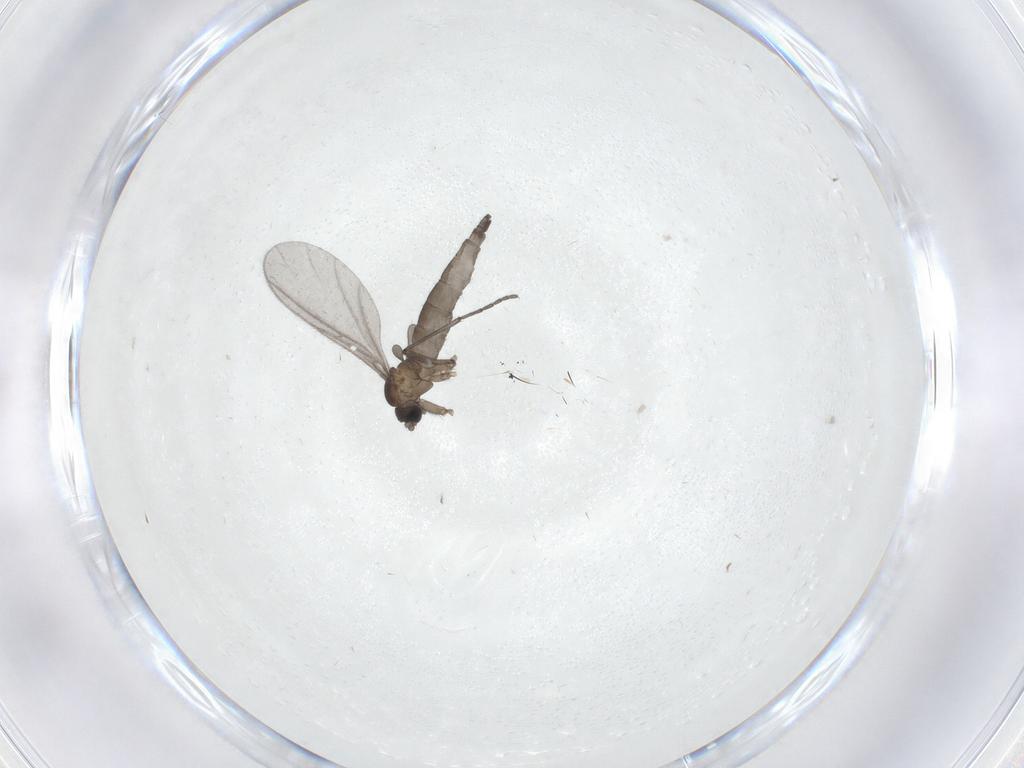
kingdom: Animalia
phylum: Arthropoda
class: Insecta
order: Diptera
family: Sciaridae
